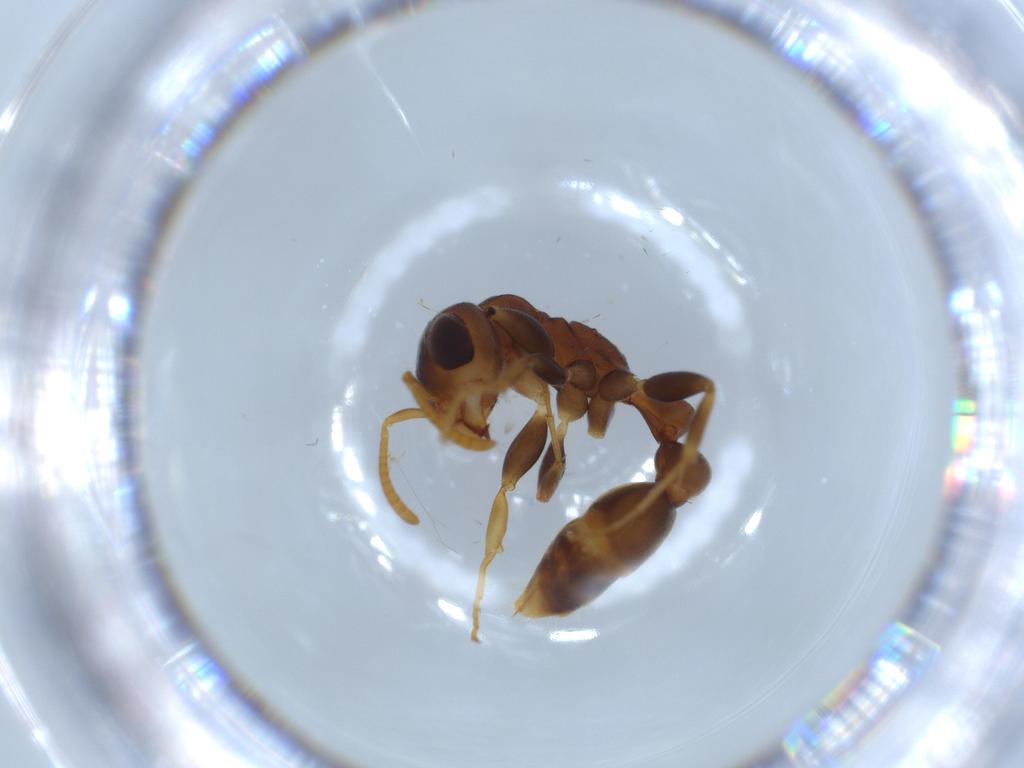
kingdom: Animalia
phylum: Arthropoda
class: Insecta
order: Hymenoptera
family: Formicidae
